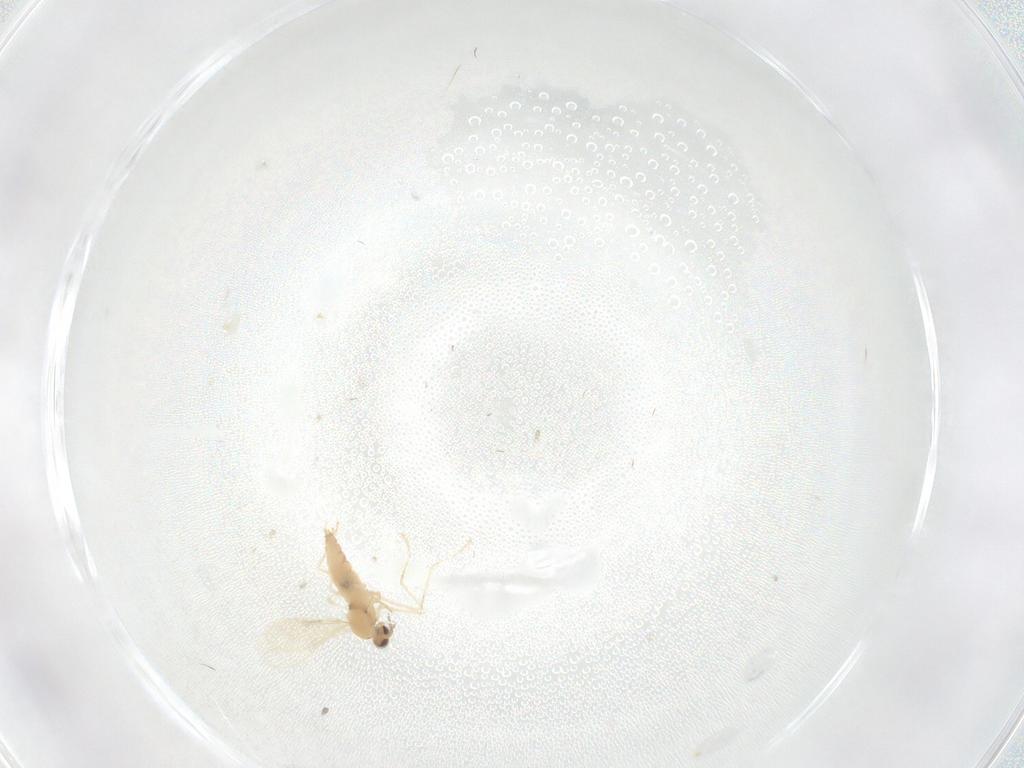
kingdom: Animalia
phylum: Arthropoda
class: Insecta
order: Diptera
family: Cecidomyiidae
